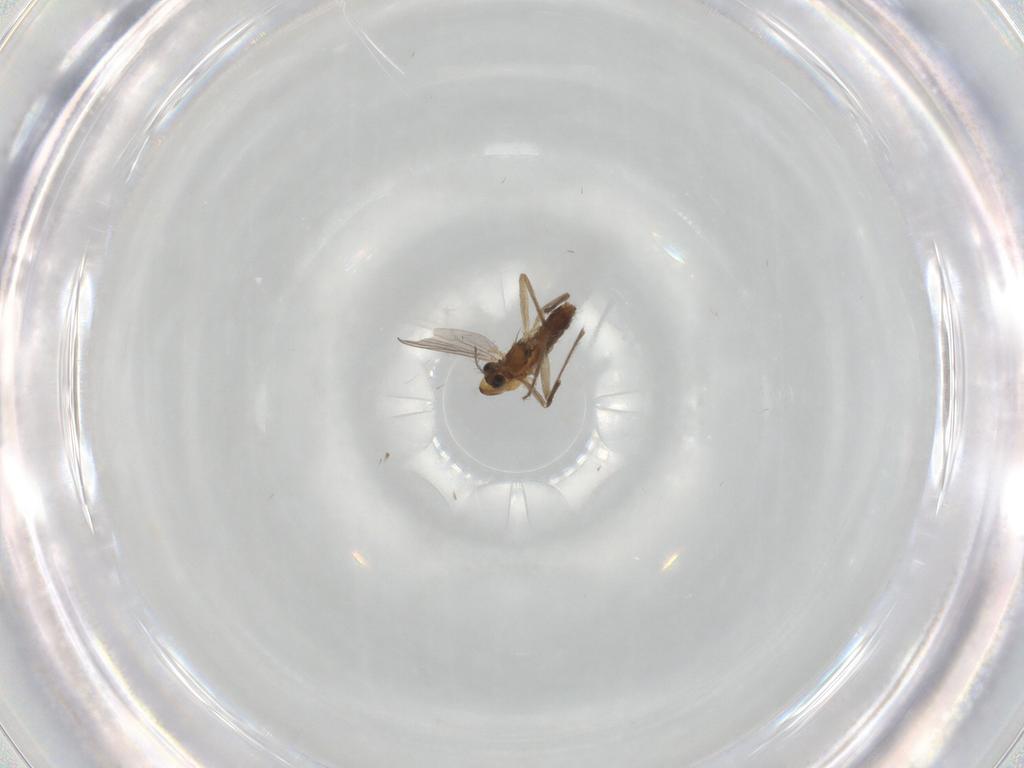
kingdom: Animalia
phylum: Arthropoda
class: Insecta
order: Diptera
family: Chironomidae
